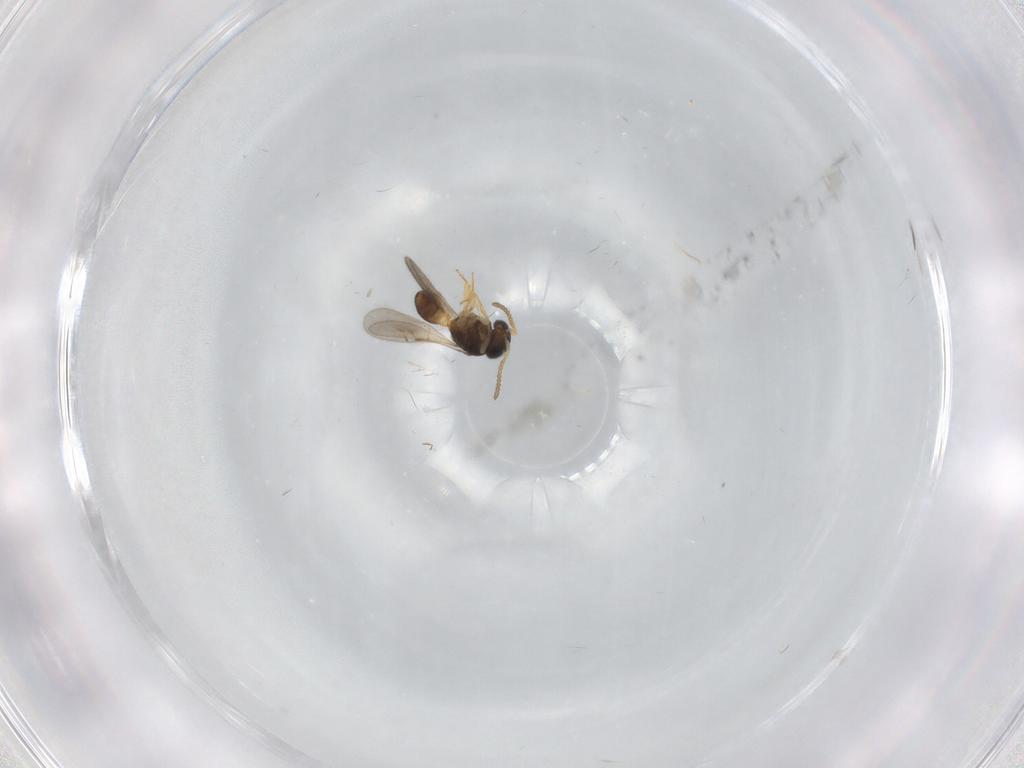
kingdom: Animalia
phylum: Arthropoda
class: Insecta
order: Hymenoptera
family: Scelionidae
